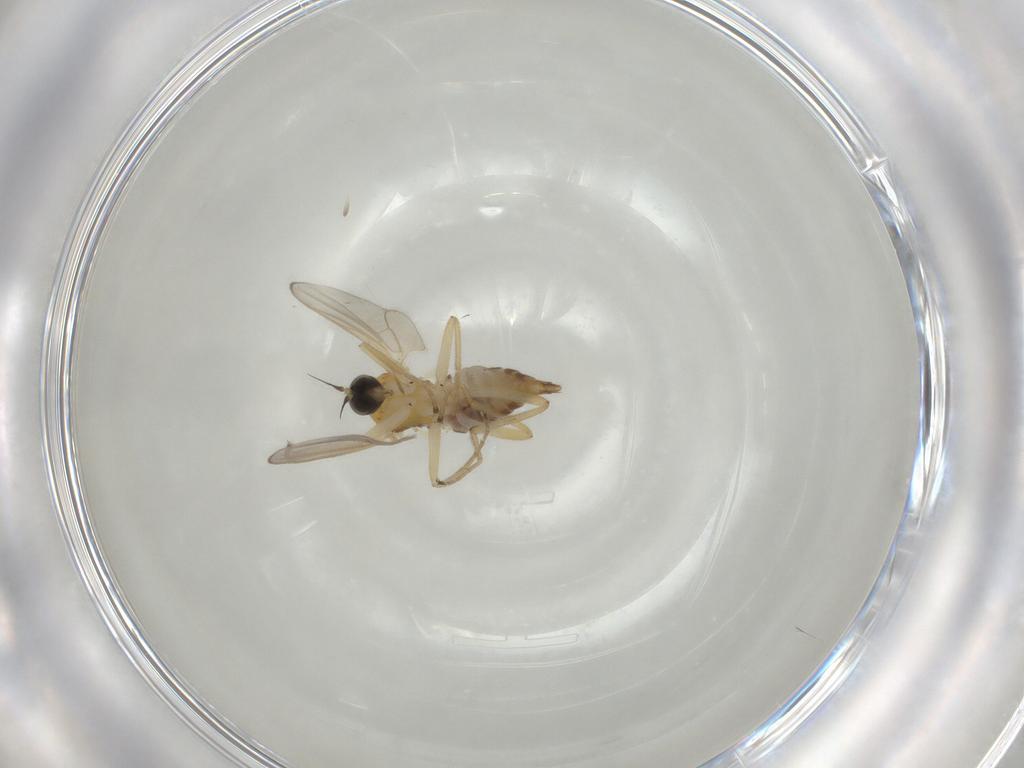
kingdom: Animalia
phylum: Arthropoda
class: Insecta
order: Diptera
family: Hybotidae
